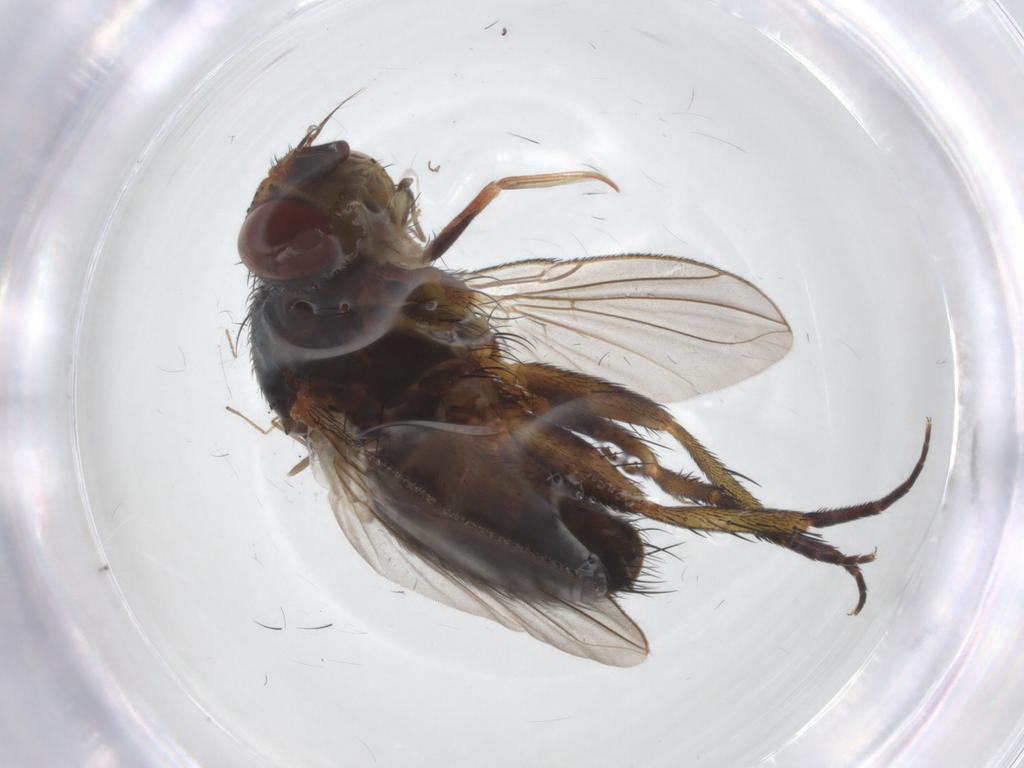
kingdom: Animalia
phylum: Arthropoda
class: Insecta
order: Diptera
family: Tachinidae
